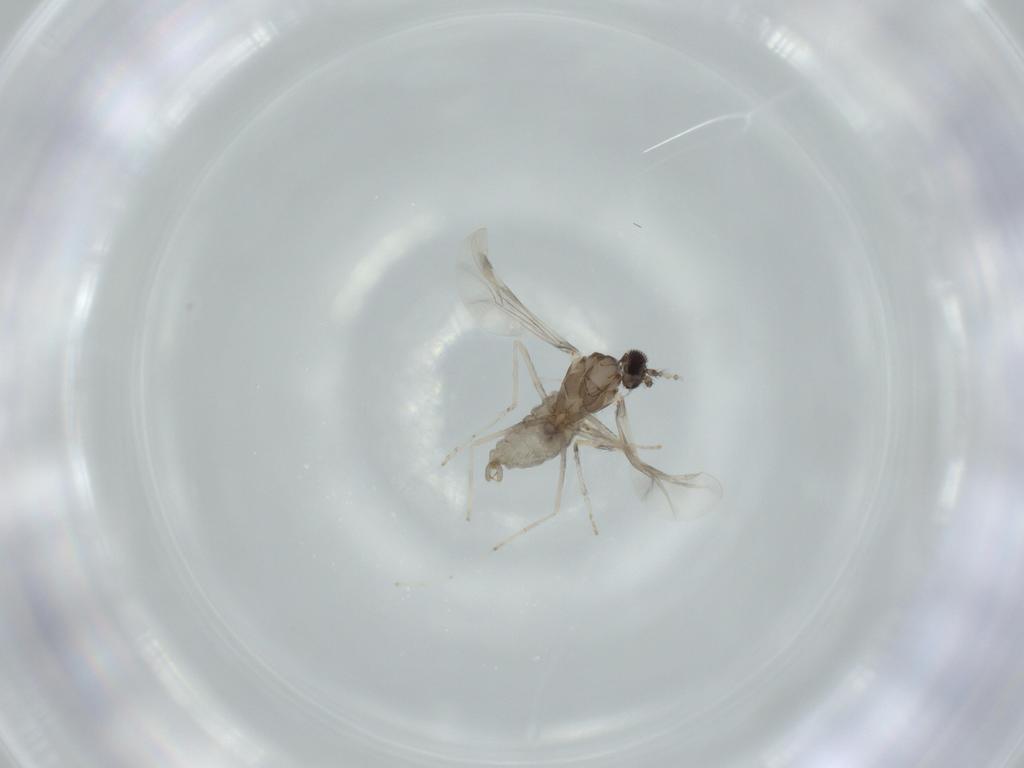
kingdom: Animalia
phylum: Arthropoda
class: Insecta
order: Diptera
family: Cecidomyiidae
